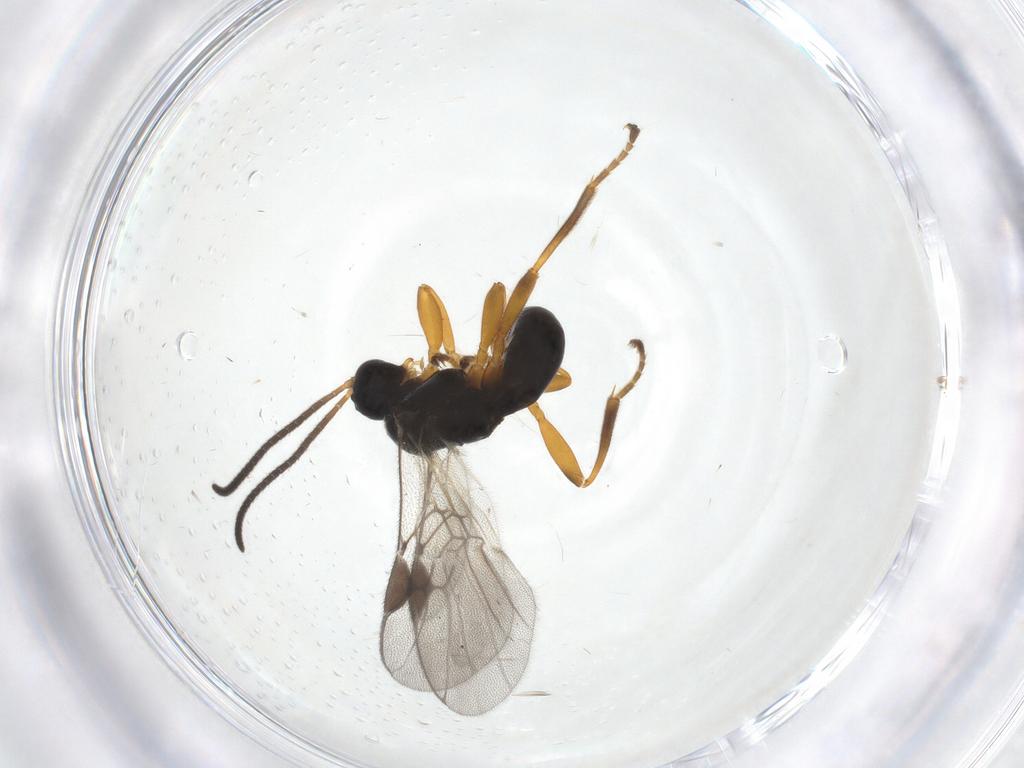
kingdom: Animalia
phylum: Arthropoda
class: Insecta
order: Hymenoptera
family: Braconidae
